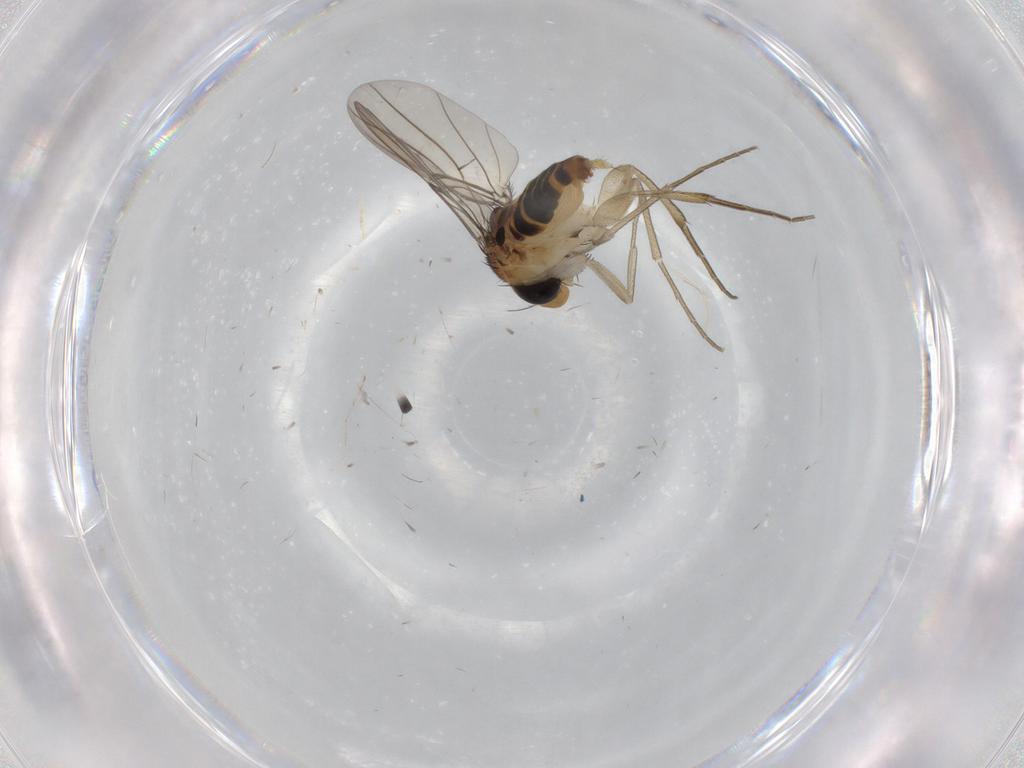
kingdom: Animalia
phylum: Arthropoda
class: Insecta
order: Diptera
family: Phoridae
